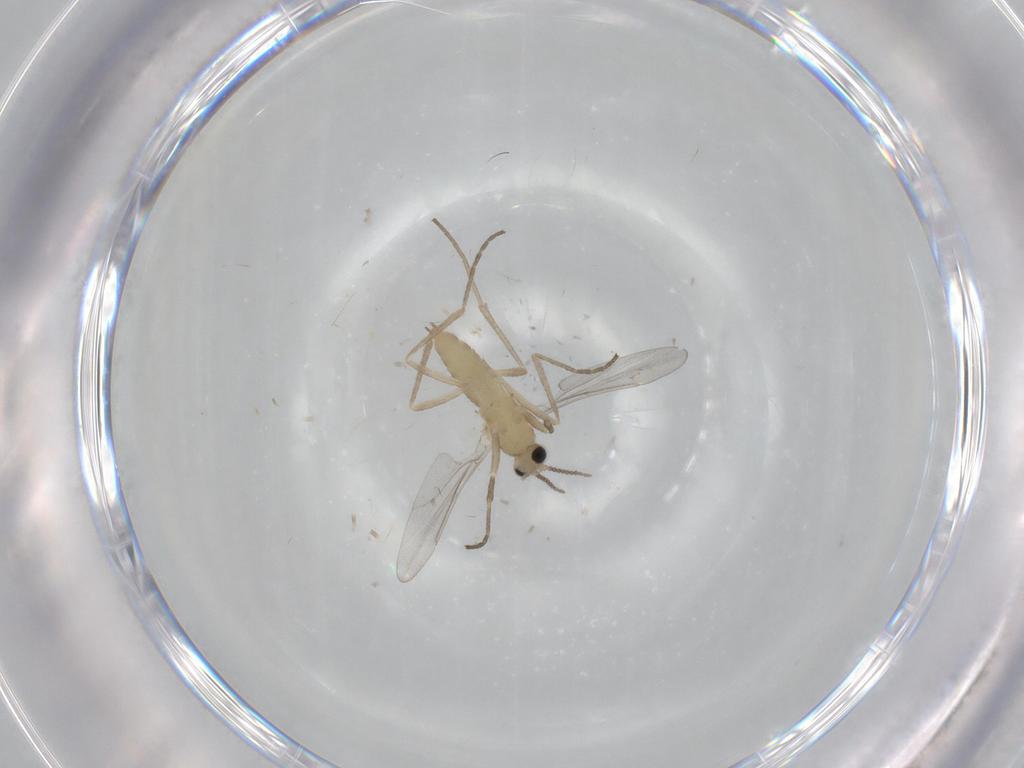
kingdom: Animalia
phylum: Arthropoda
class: Insecta
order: Diptera
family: Cecidomyiidae
